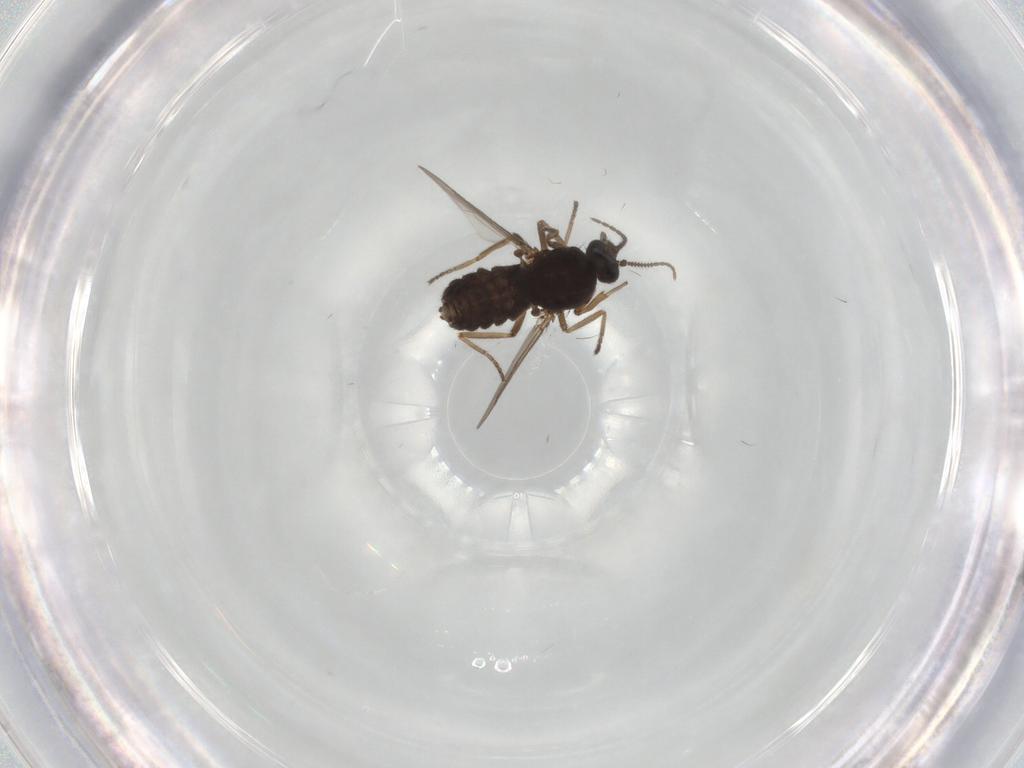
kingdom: Animalia
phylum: Arthropoda
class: Insecta
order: Diptera
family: Ceratopogonidae
